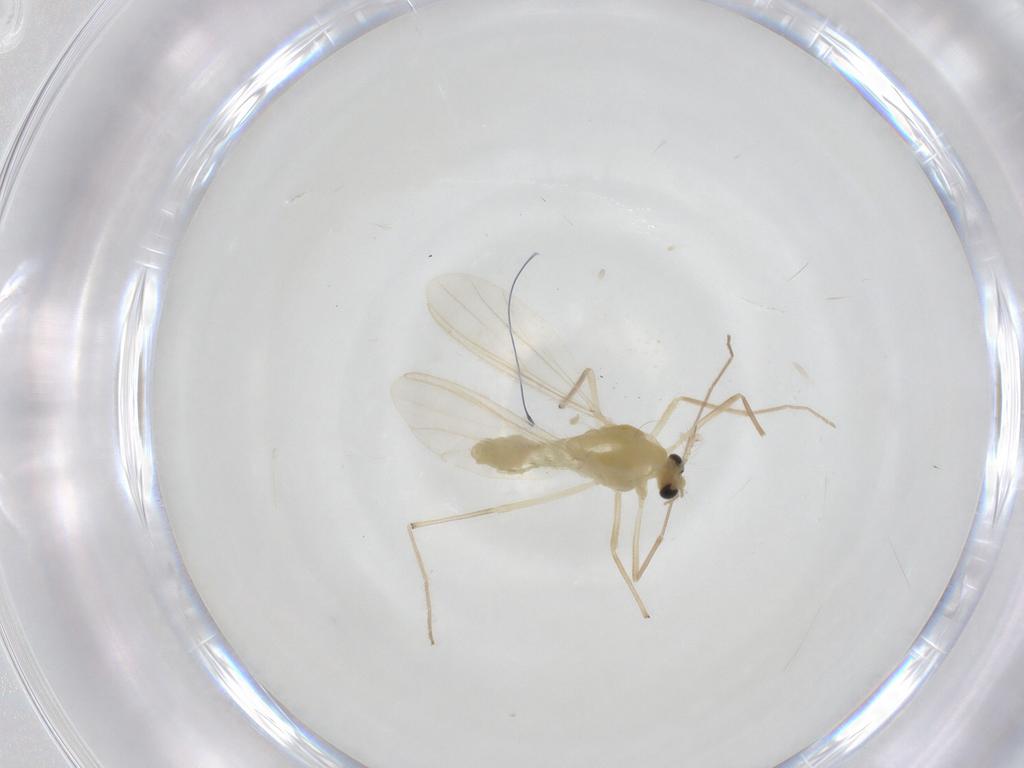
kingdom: Animalia
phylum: Arthropoda
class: Insecta
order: Diptera
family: Chironomidae
